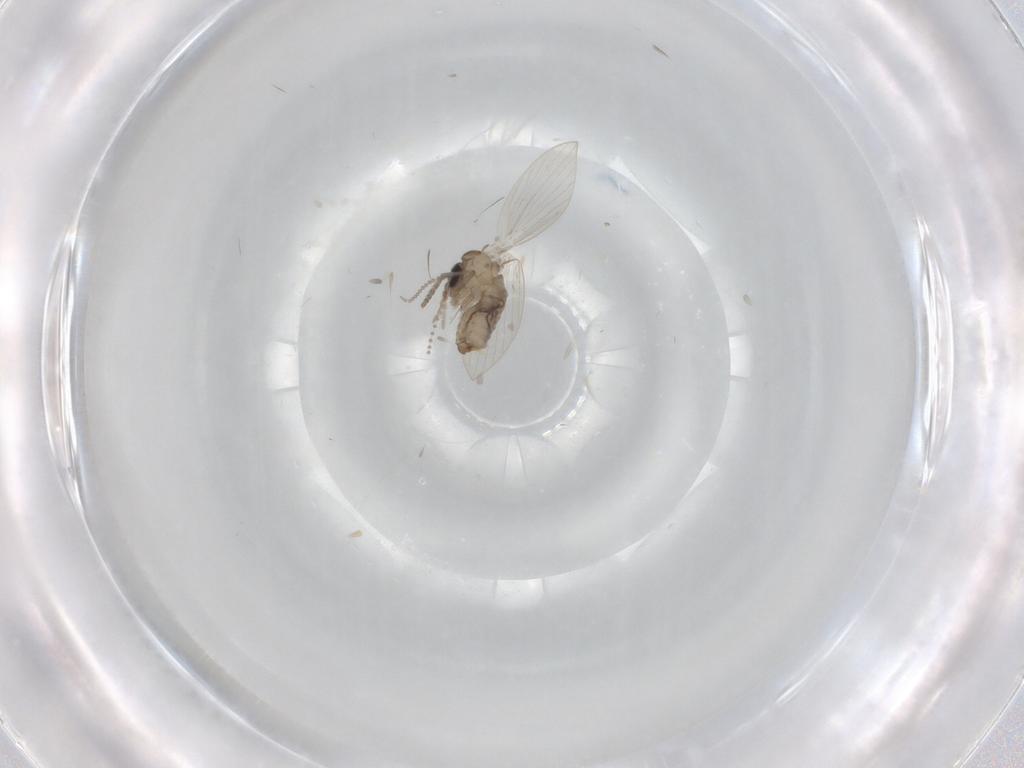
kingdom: Animalia
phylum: Arthropoda
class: Insecta
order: Diptera
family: Psychodidae
